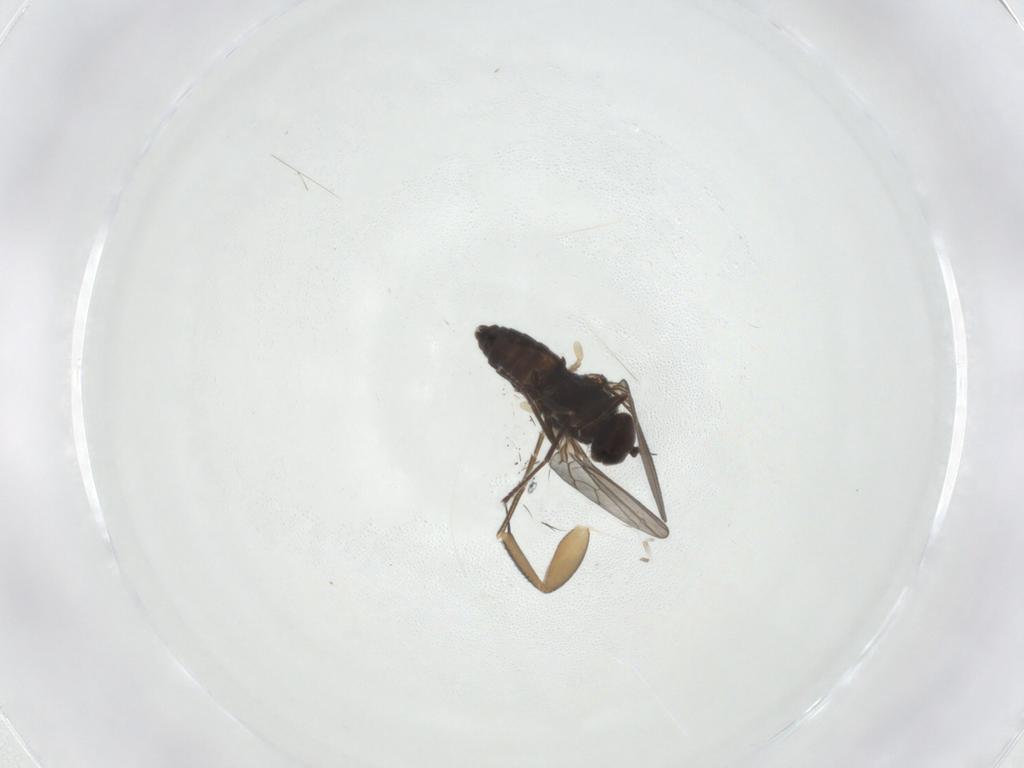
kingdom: Animalia
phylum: Arthropoda
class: Insecta
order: Diptera
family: Dolichopodidae
